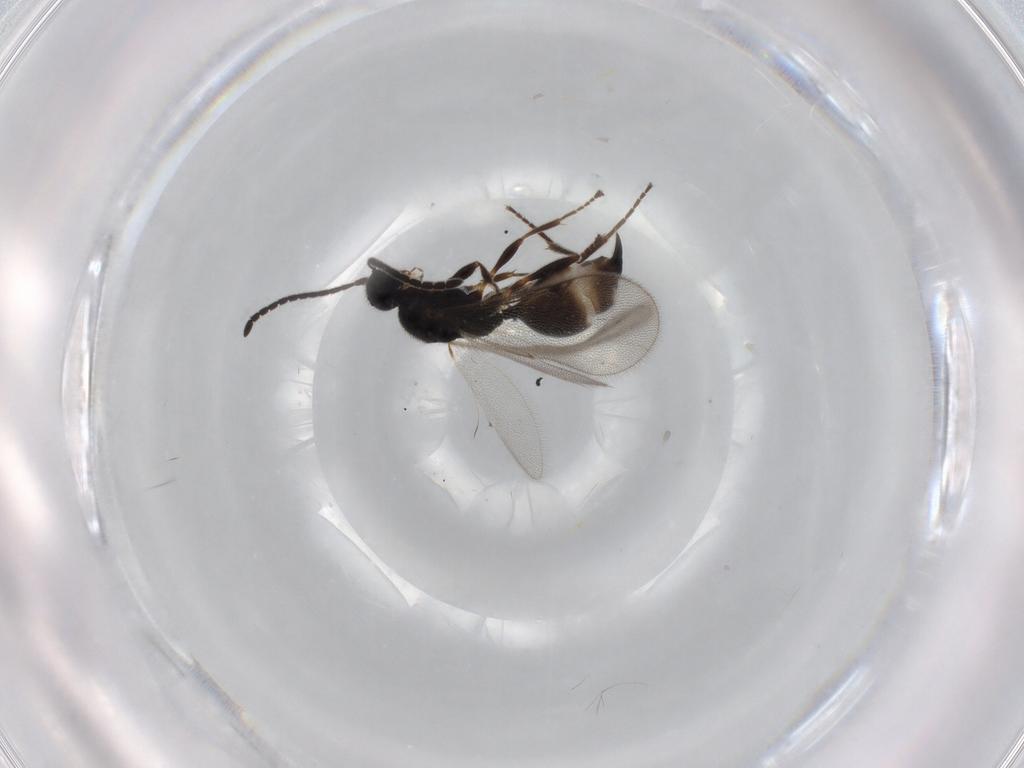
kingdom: Animalia
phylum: Arthropoda
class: Insecta
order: Hymenoptera
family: Proctotrupidae
